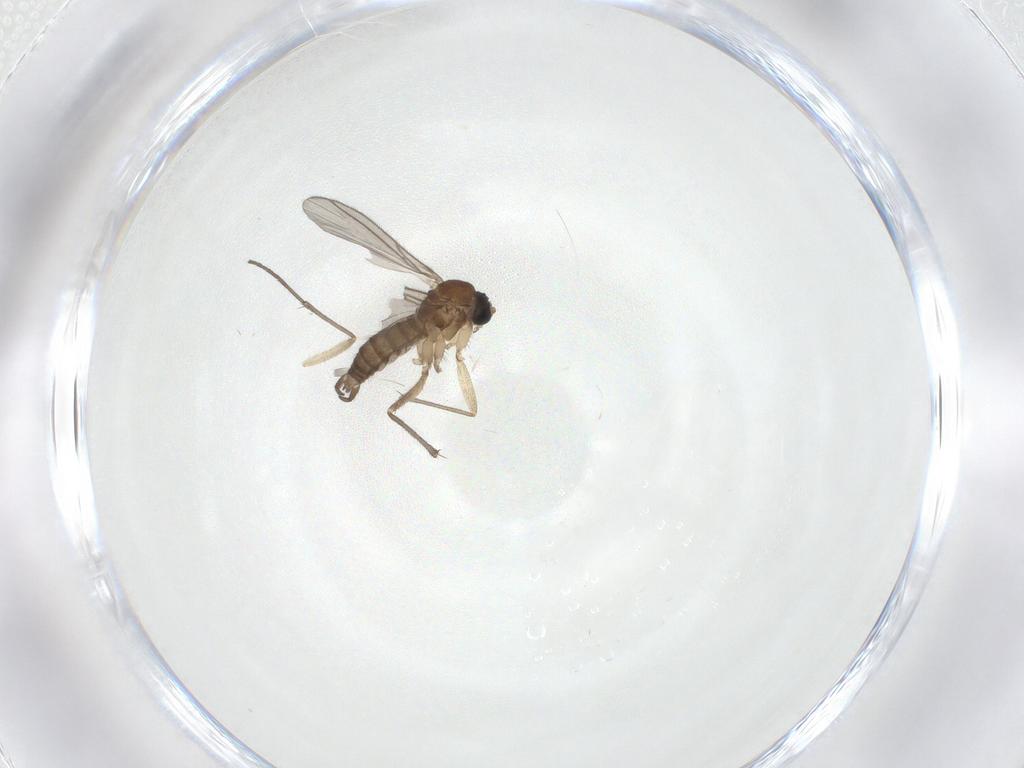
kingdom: Animalia
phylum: Arthropoda
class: Insecta
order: Diptera
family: Sciaridae
